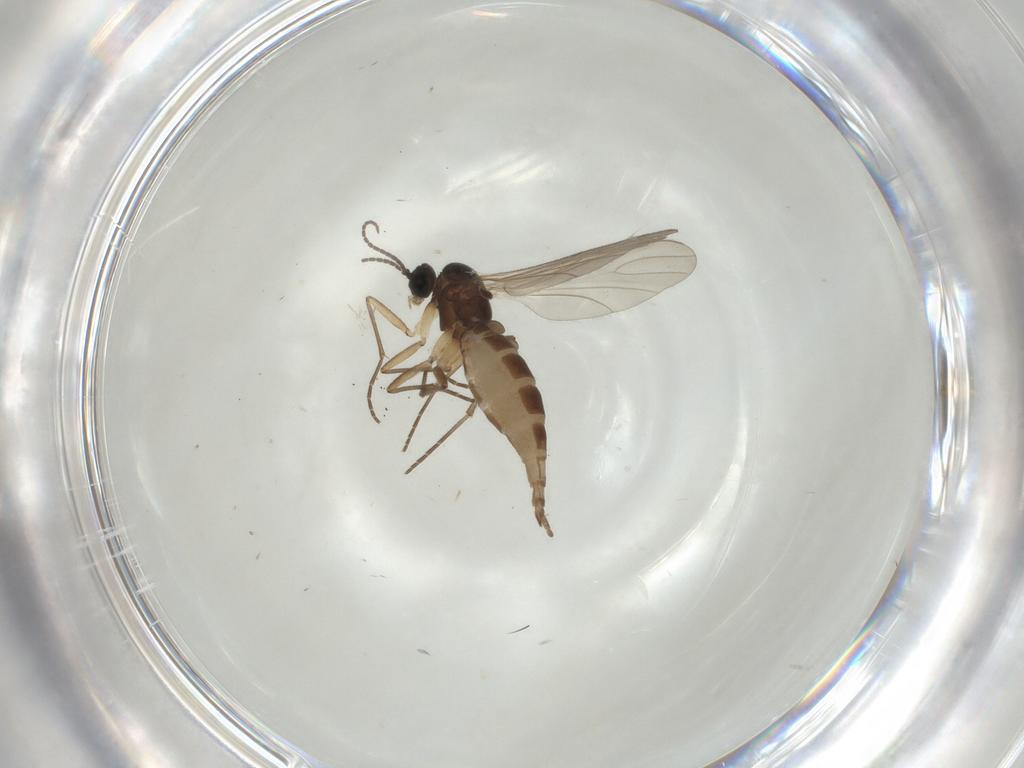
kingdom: Animalia
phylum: Arthropoda
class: Insecta
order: Diptera
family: Sciaridae
